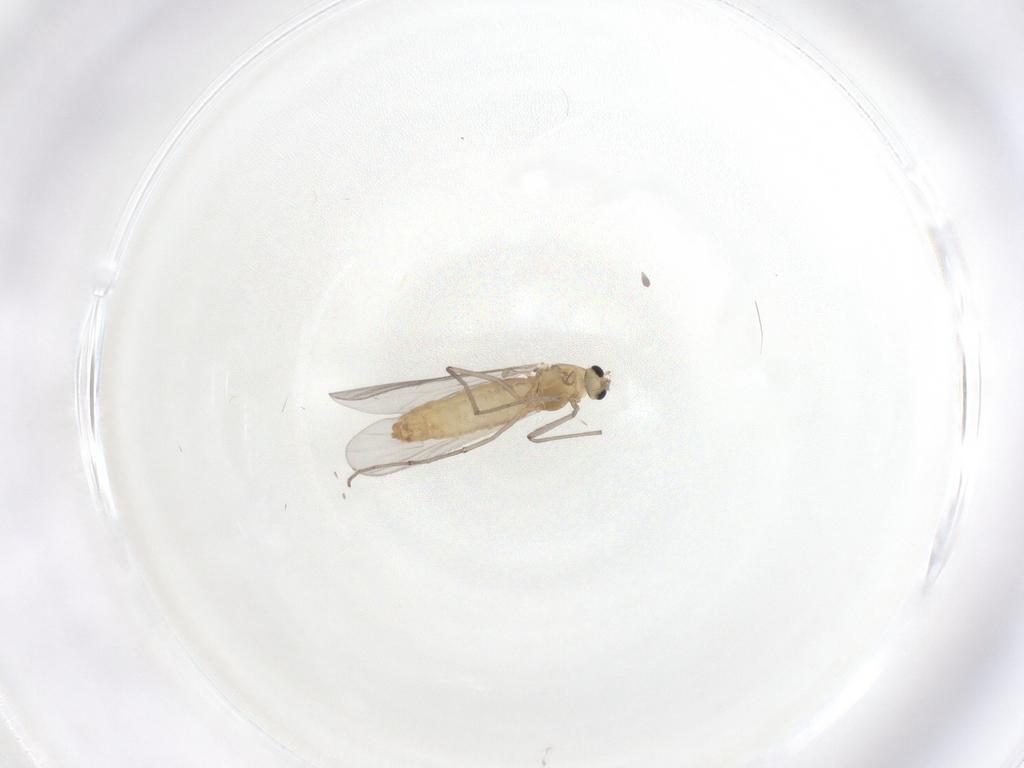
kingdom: Animalia
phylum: Arthropoda
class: Insecta
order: Diptera
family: Chironomidae
